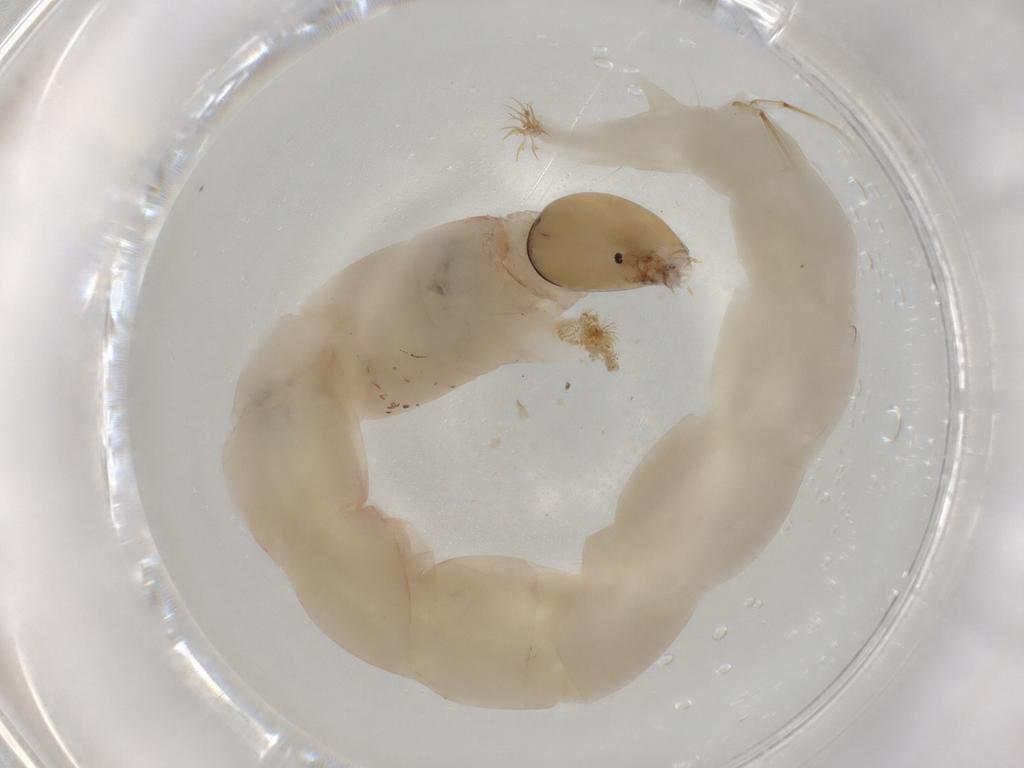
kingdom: Animalia
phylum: Arthropoda
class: Insecta
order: Diptera
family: Chironomidae
